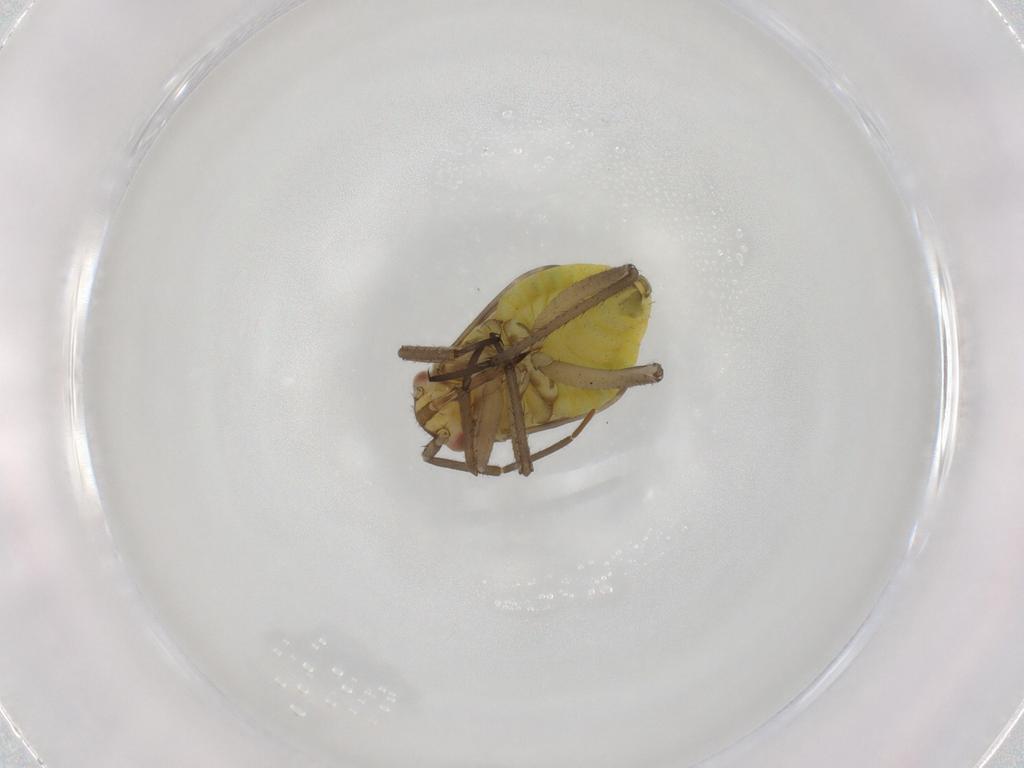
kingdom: Animalia
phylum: Arthropoda
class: Insecta
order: Hemiptera
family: Miridae
